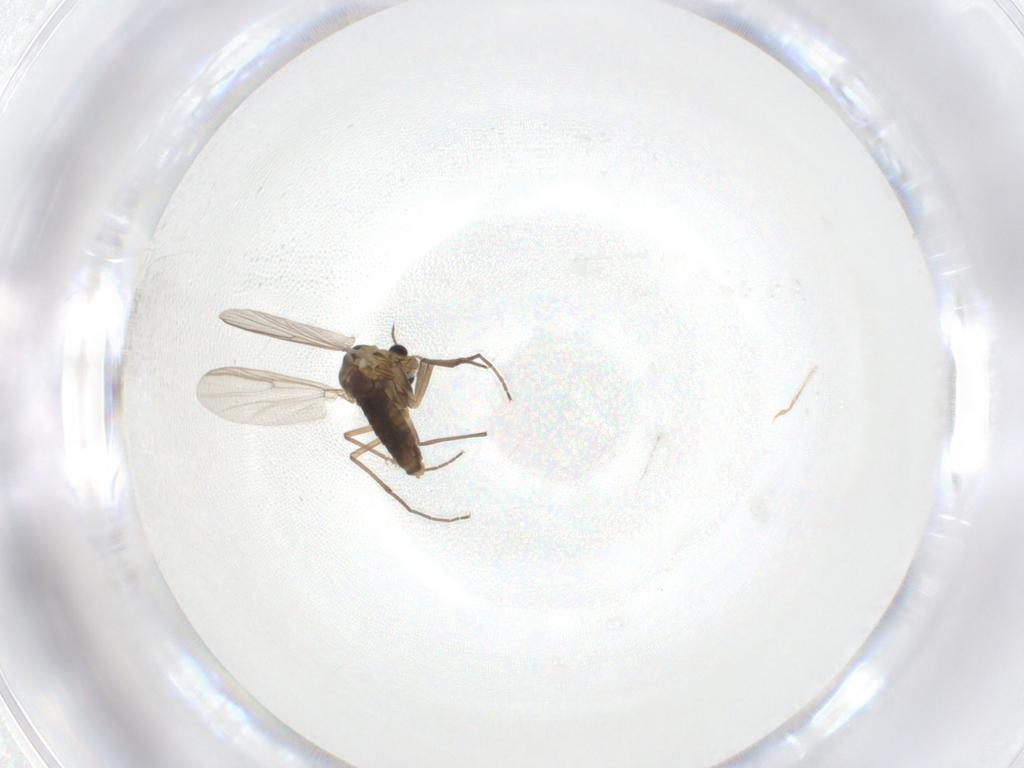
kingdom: Animalia
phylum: Arthropoda
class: Insecta
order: Diptera
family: Chironomidae
